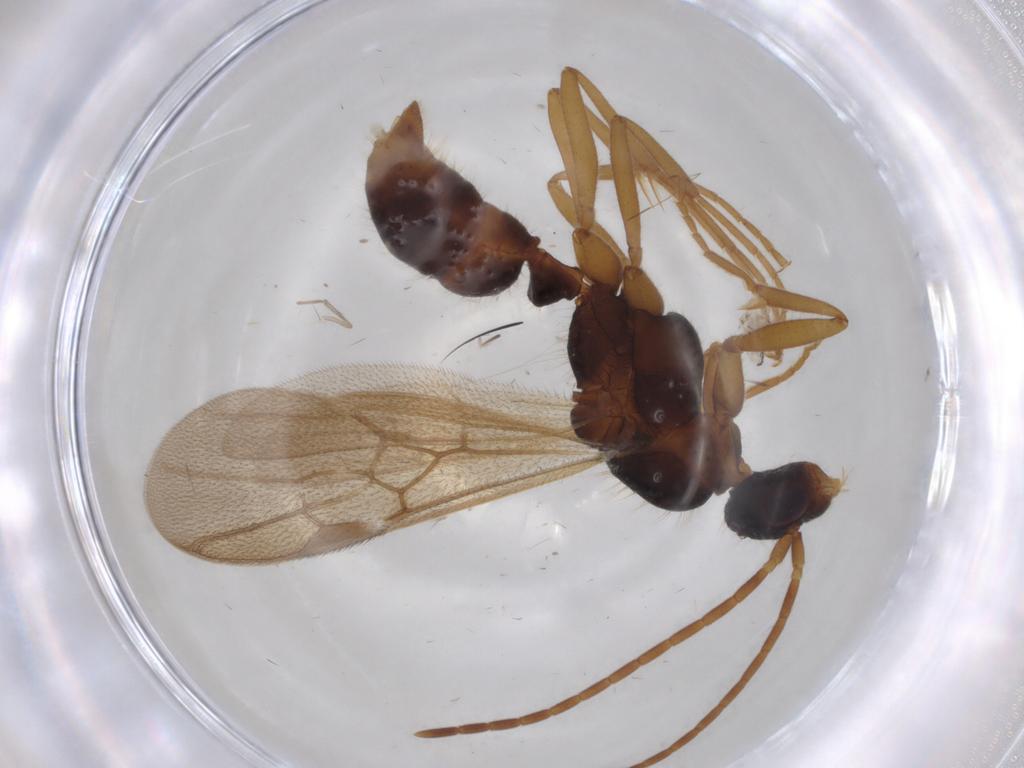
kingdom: Animalia
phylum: Arthropoda
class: Insecta
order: Hymenoptera
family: Formicidae
